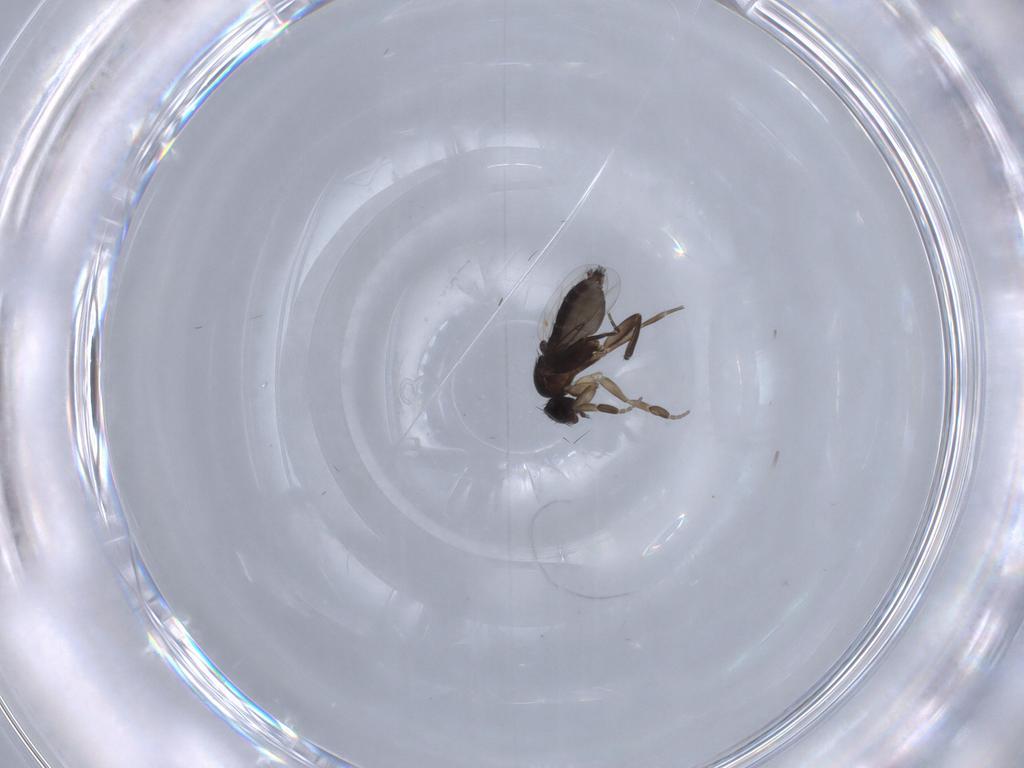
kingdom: Animalia
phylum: Arthropoda
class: Insecta
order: Diptera
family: Phoridae
